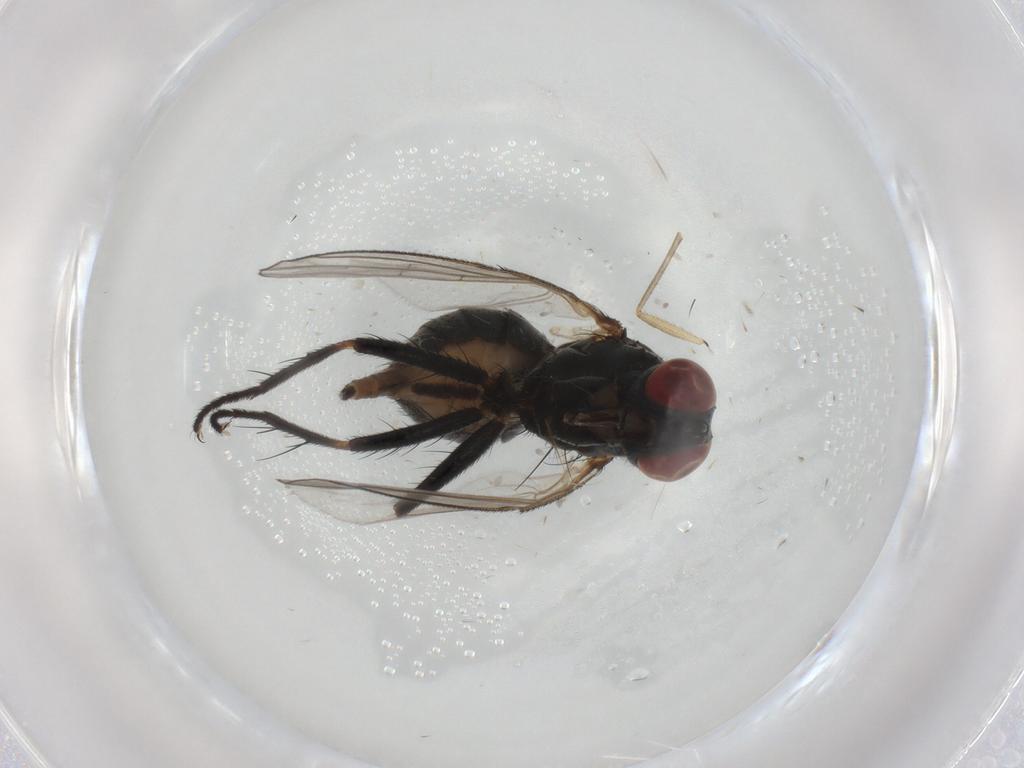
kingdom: Animalia
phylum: Arthropoda
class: Insecta
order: Diptera
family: Muscidae
